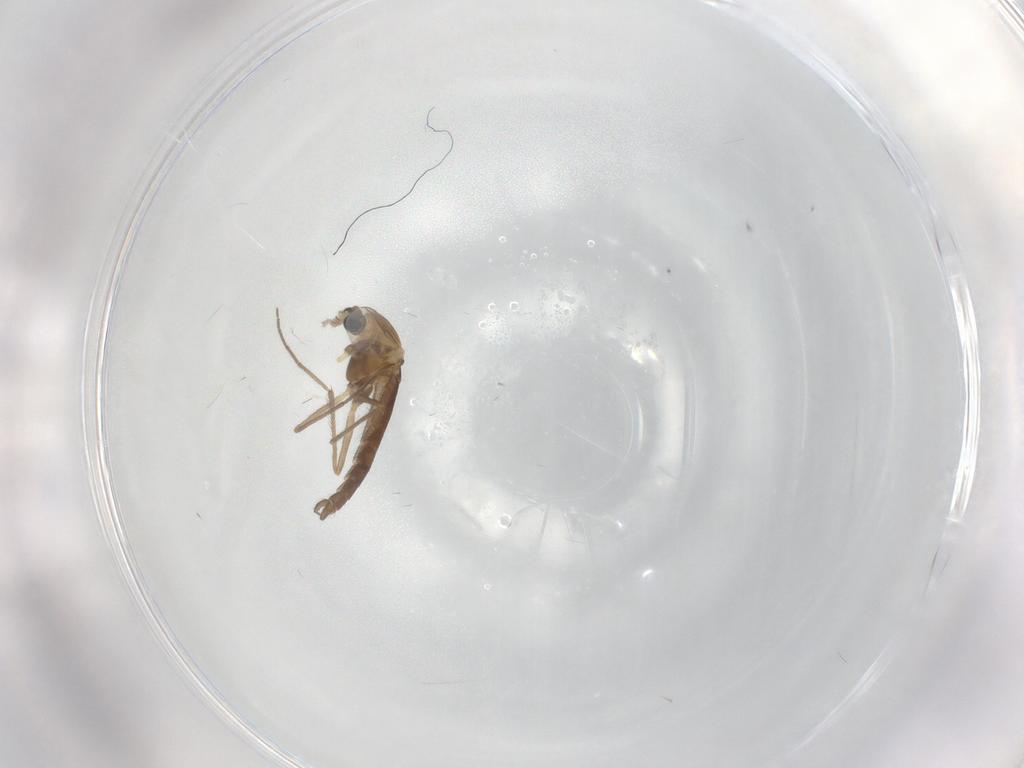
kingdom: Animalia
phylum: Arthropoda
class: Insecta
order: Diptera
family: Chironomidae
